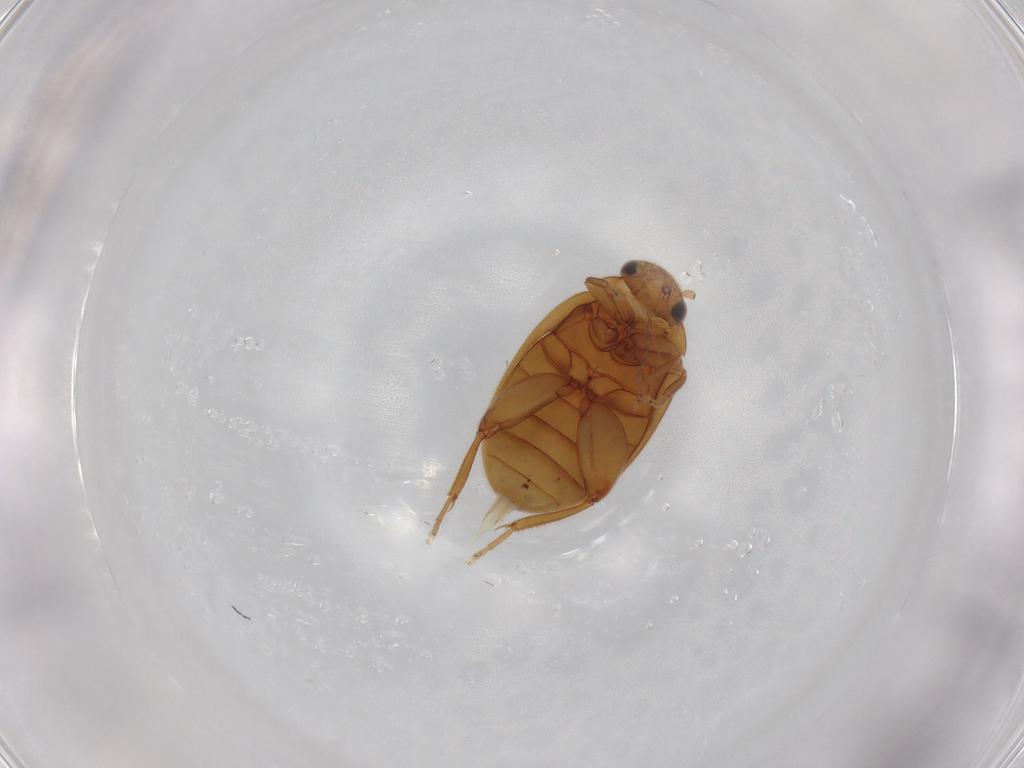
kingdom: Animalia
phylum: Arthropoda
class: Insecta
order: Coleoptera
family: Scirtidae
